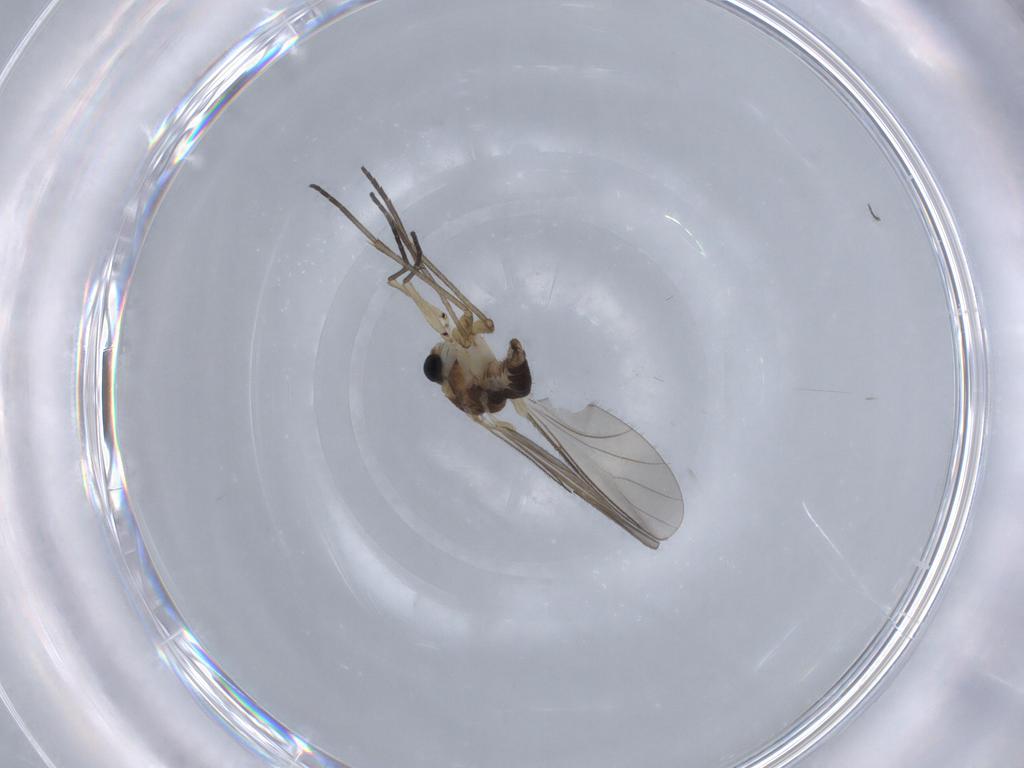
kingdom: Animalia
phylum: Arthropoda
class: Insecta
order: Diptera
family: Sciaridae
